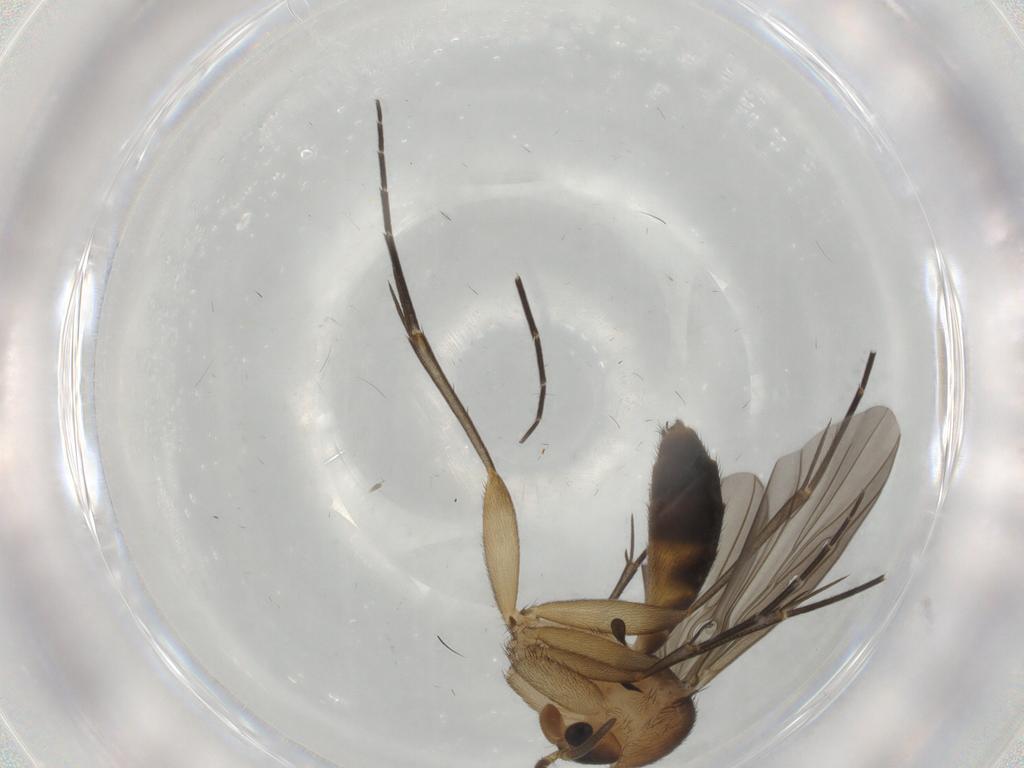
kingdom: Animalia
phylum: Arthropoda
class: Insecta
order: Diptera
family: Mycetophilidae
